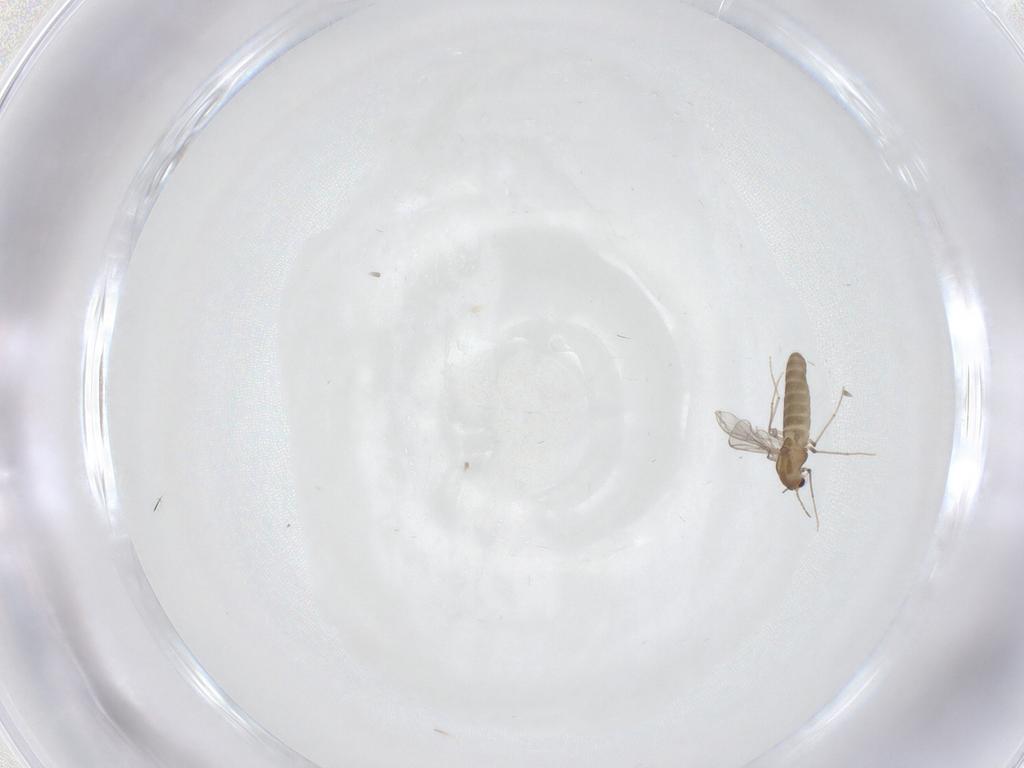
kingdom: Animalia
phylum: Arthropoda
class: Insecta
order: Diptera
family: Chironomidae
